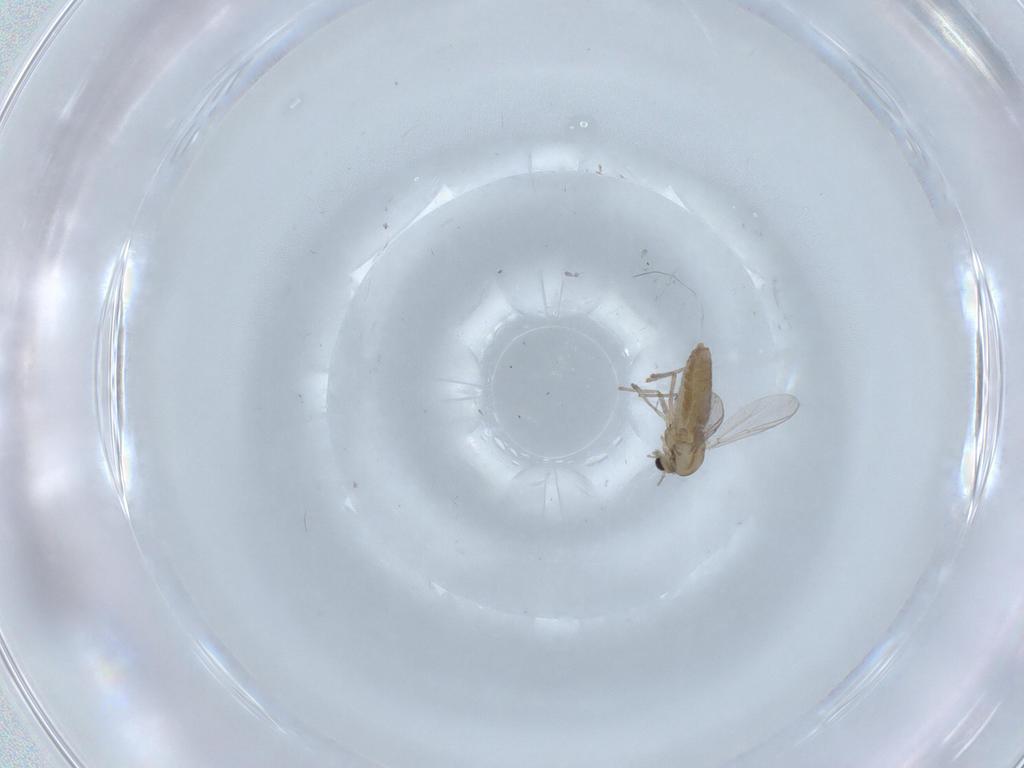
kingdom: Animalia
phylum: Arthropoda
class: Insecta
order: Diptera
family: Chironomidae
